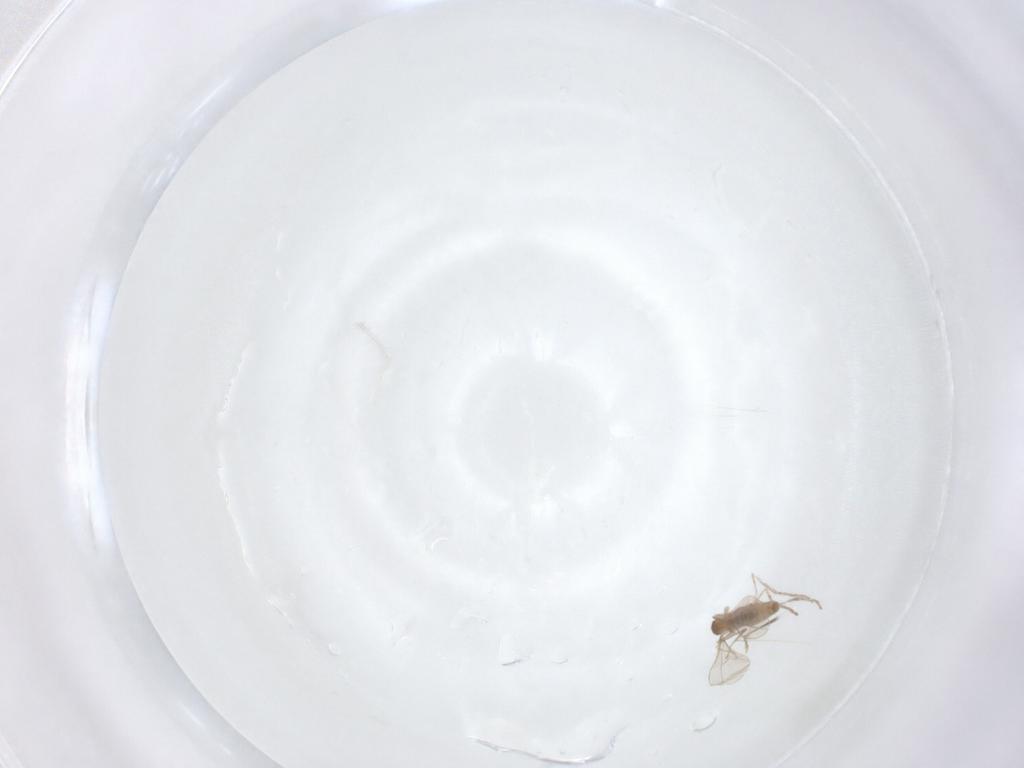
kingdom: Animalia
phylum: Arthropoda
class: Insecta
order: Diptera
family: Cecidomyiidae
